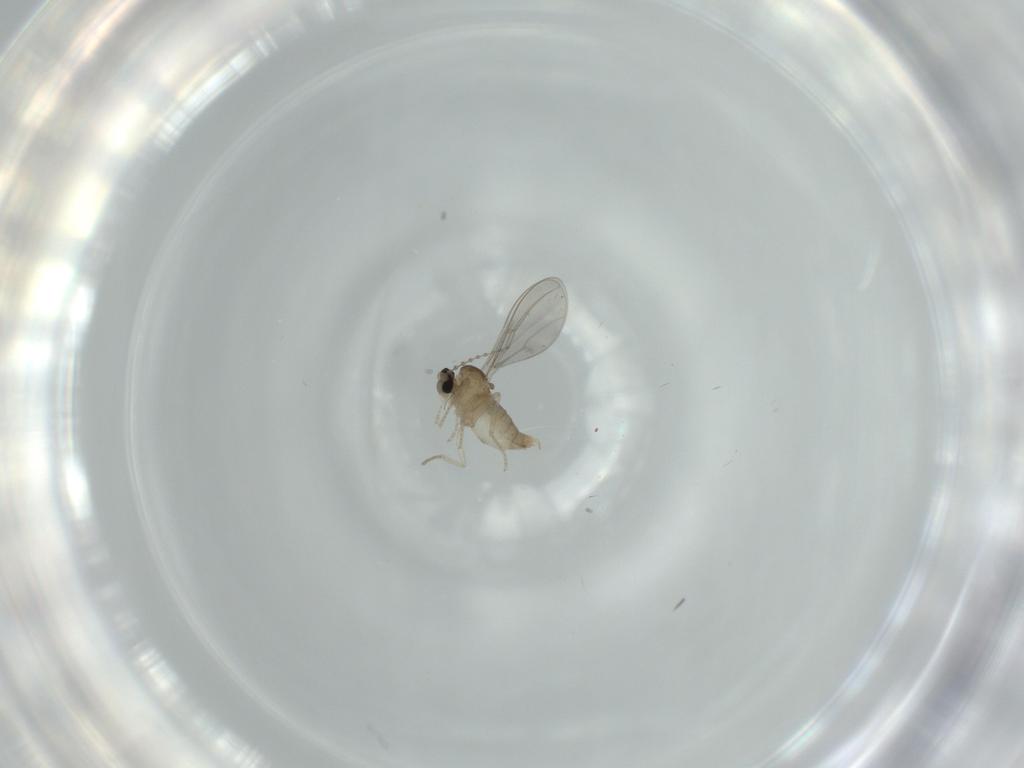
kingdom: Animalia
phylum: Arthropoda
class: Insecta
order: Diptera
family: Cecidomyiidae
